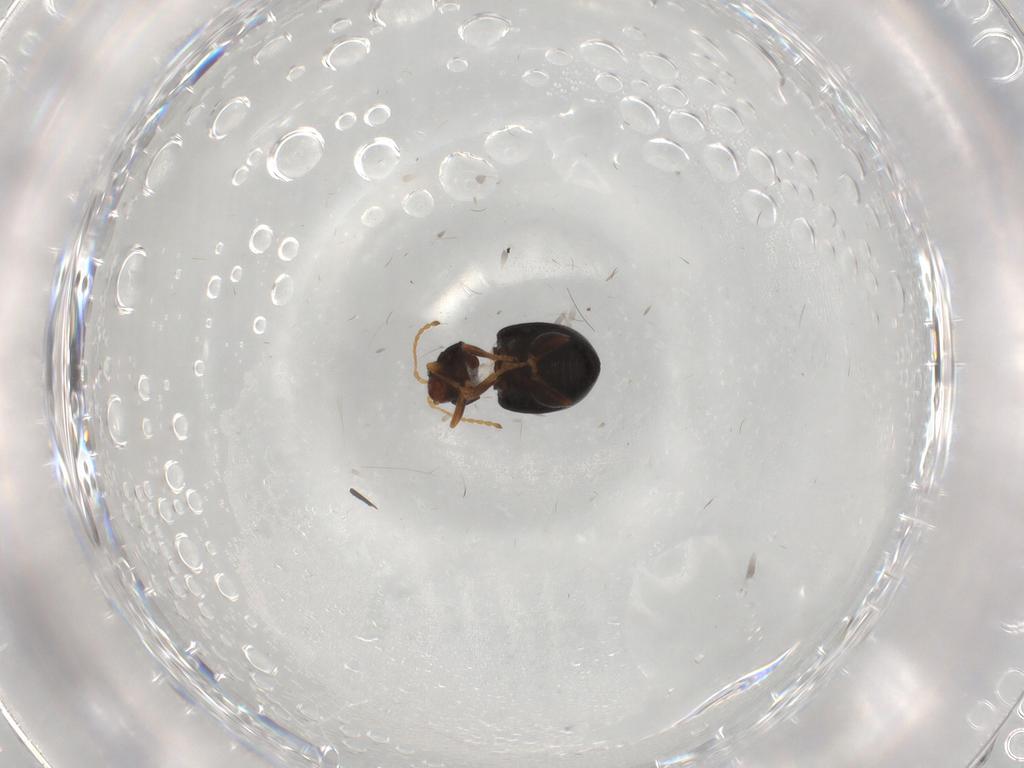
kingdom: Animalia
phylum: Arthropoda
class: Insecta
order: Coleoptera
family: Chrysomelidae
